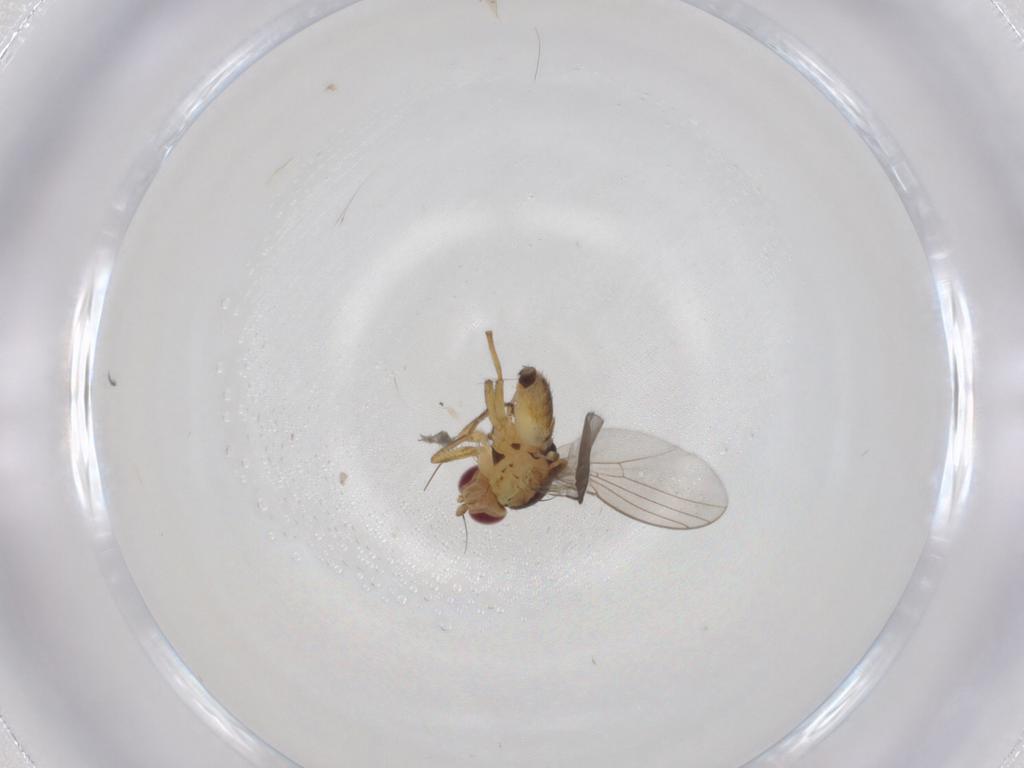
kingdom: Animalia
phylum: Arthropoda
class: Insecta
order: Diptera
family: Agromyzidae
